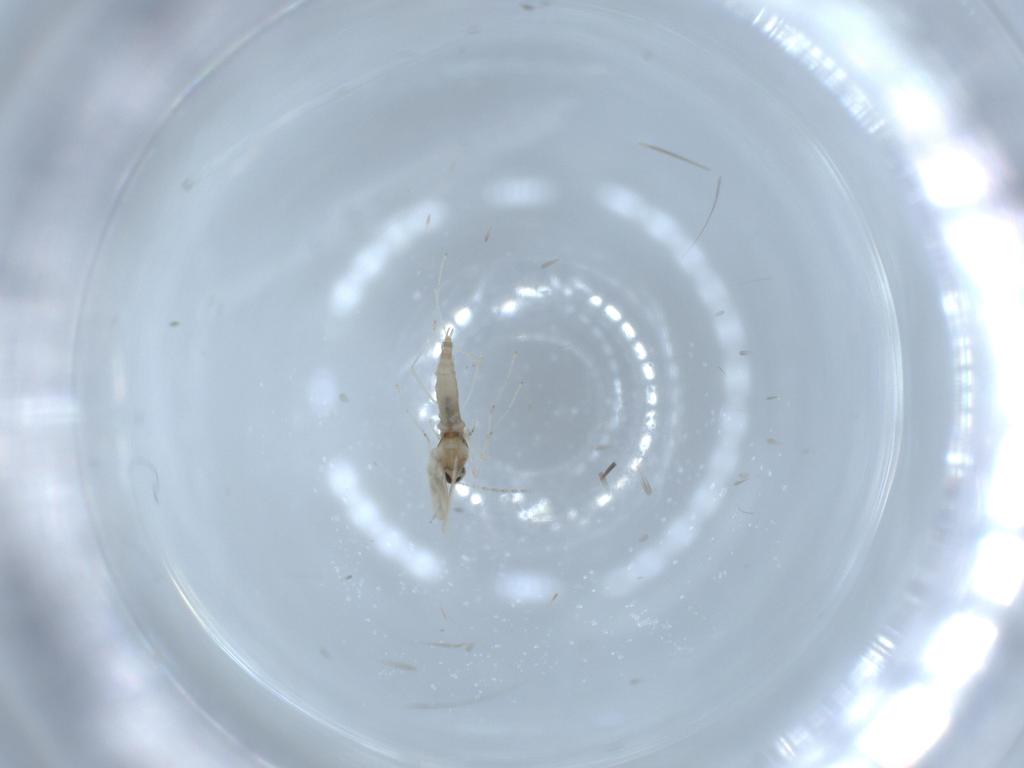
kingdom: Animalia
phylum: Arthropoda
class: Insecta
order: Diptera
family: Cecidomyiidae
